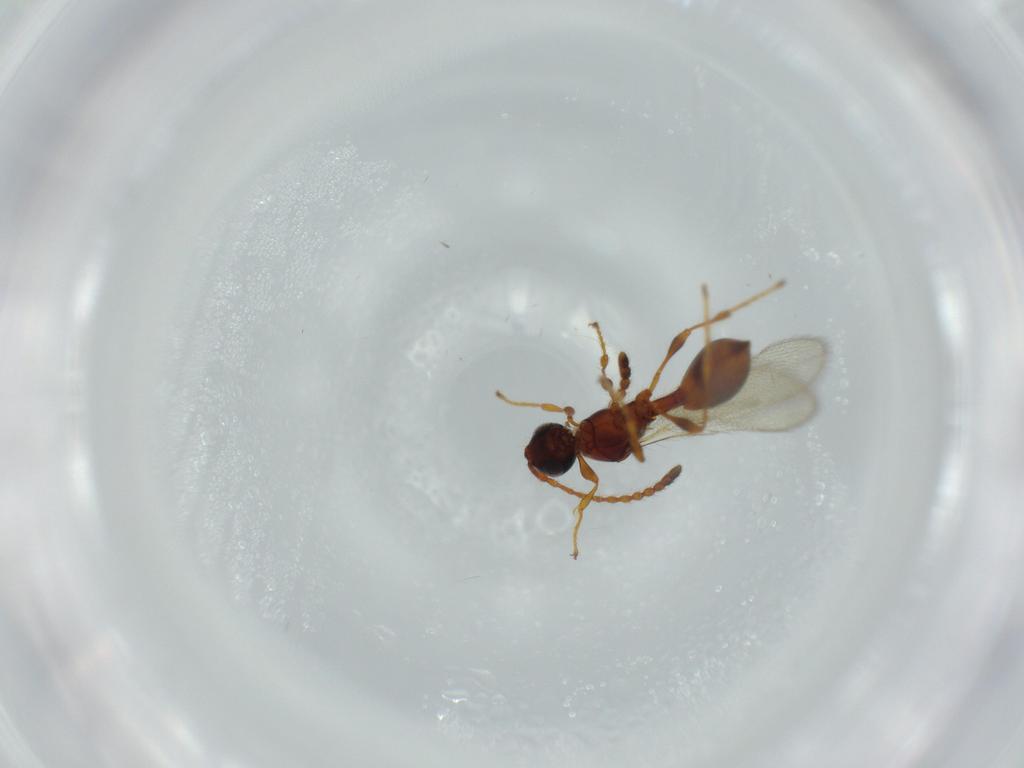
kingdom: Animalia
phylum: Arthropoda
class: Insecta
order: Hymenoptera
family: Diapriidae
